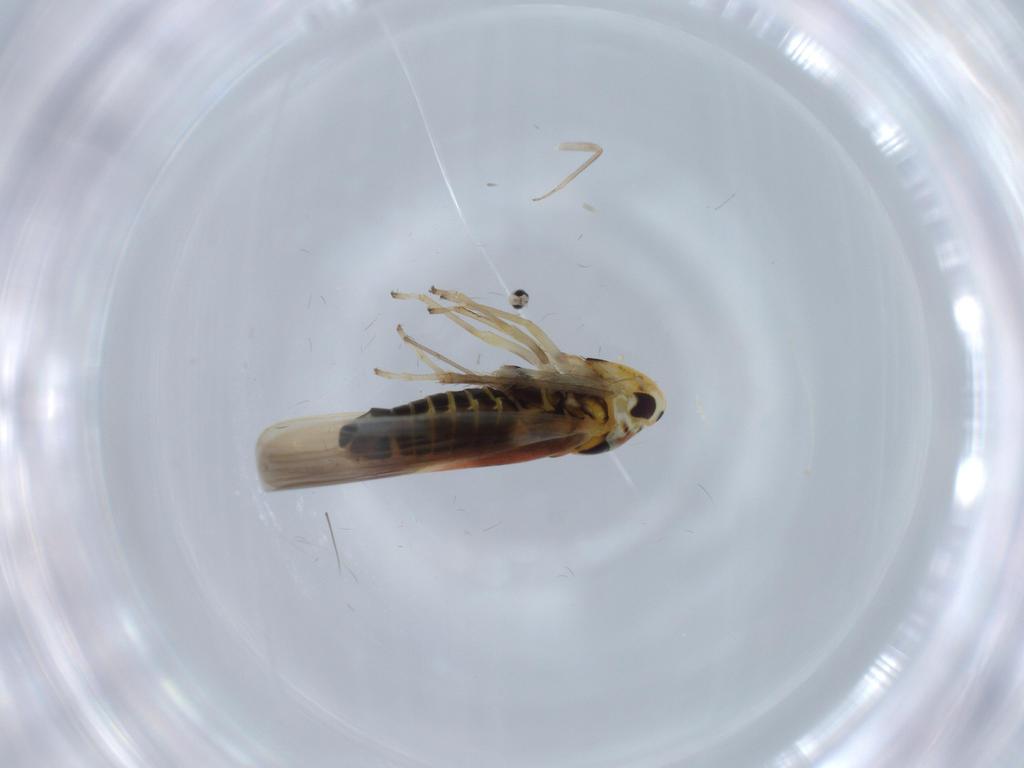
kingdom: Animalia
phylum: Arthropoda
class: Insecta
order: Hemiptera
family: Cicadellidae
